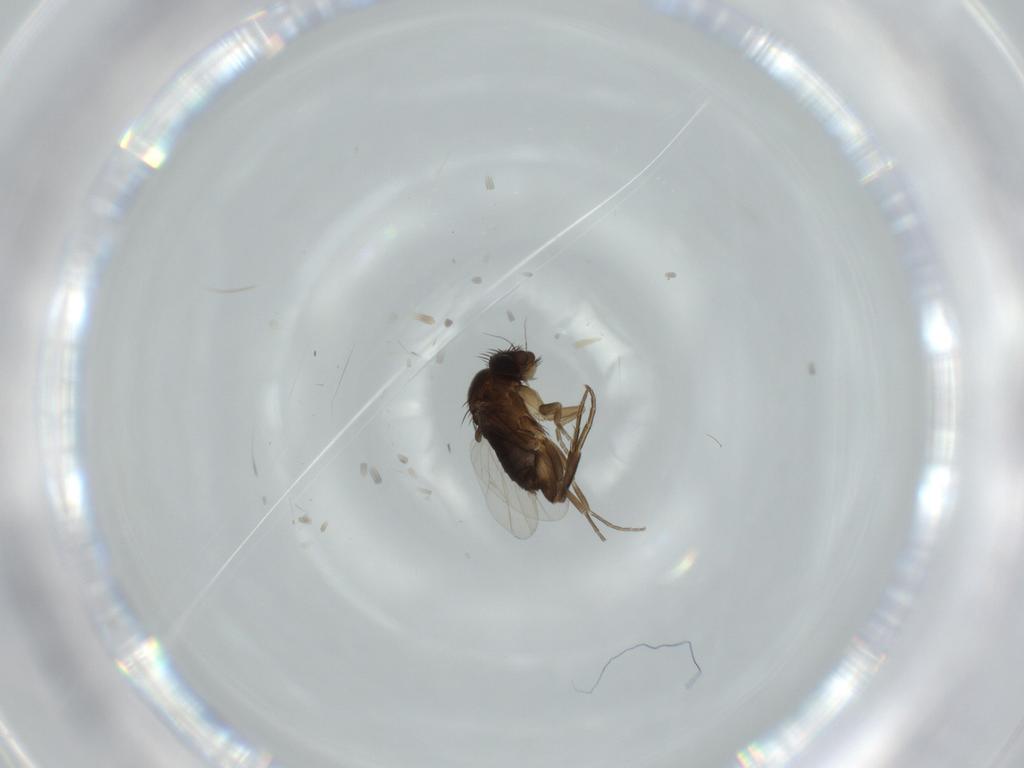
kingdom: Animalia
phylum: Arthropoda
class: Insecta
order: Diptera
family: Phoridae
